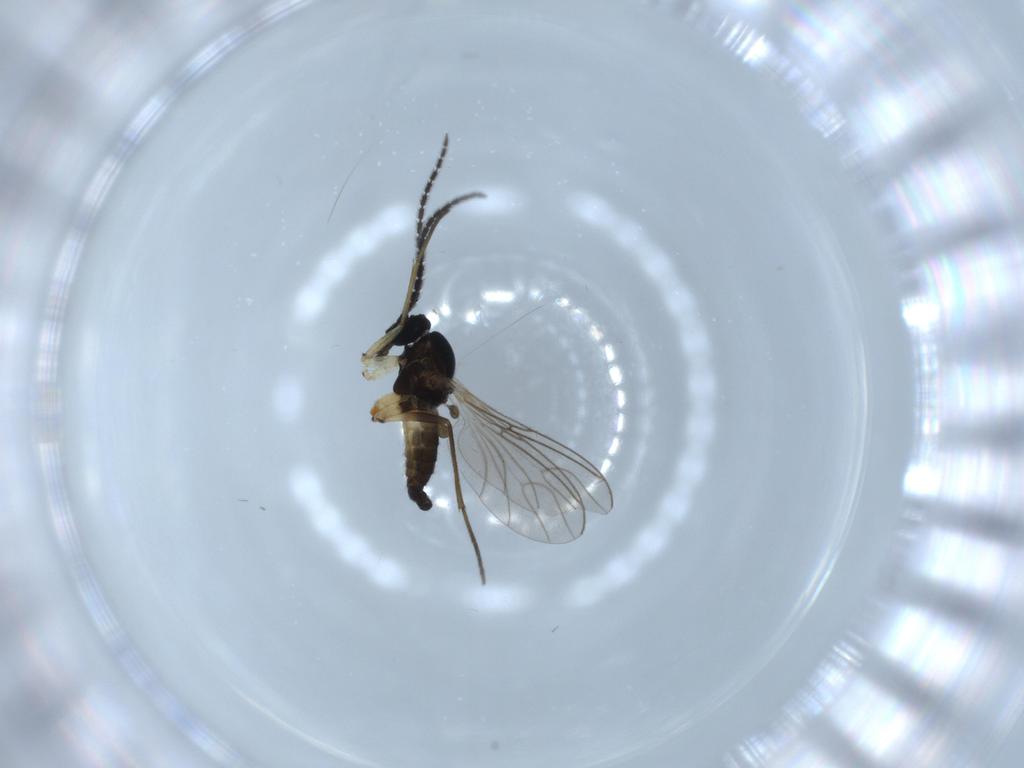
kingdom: Animalia
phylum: Arthropoda
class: Insecta
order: Diptera
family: Sciaridae
